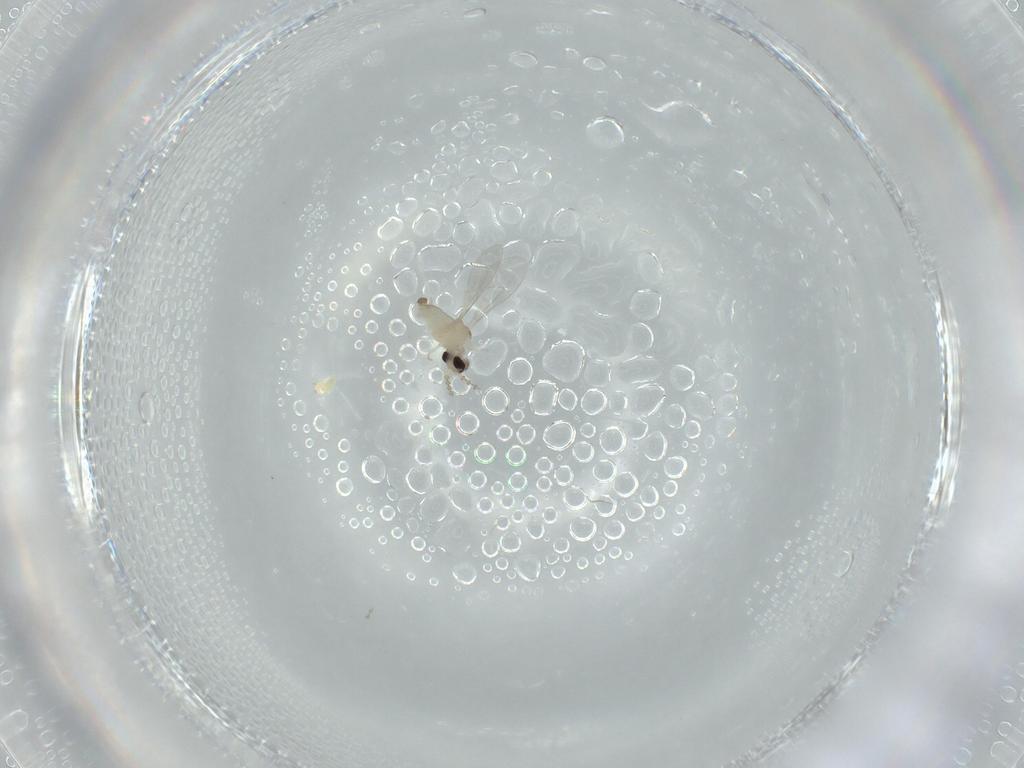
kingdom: Animalia
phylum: Arthropoda
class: Insecta
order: Diptera
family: Cecidomyiidae
